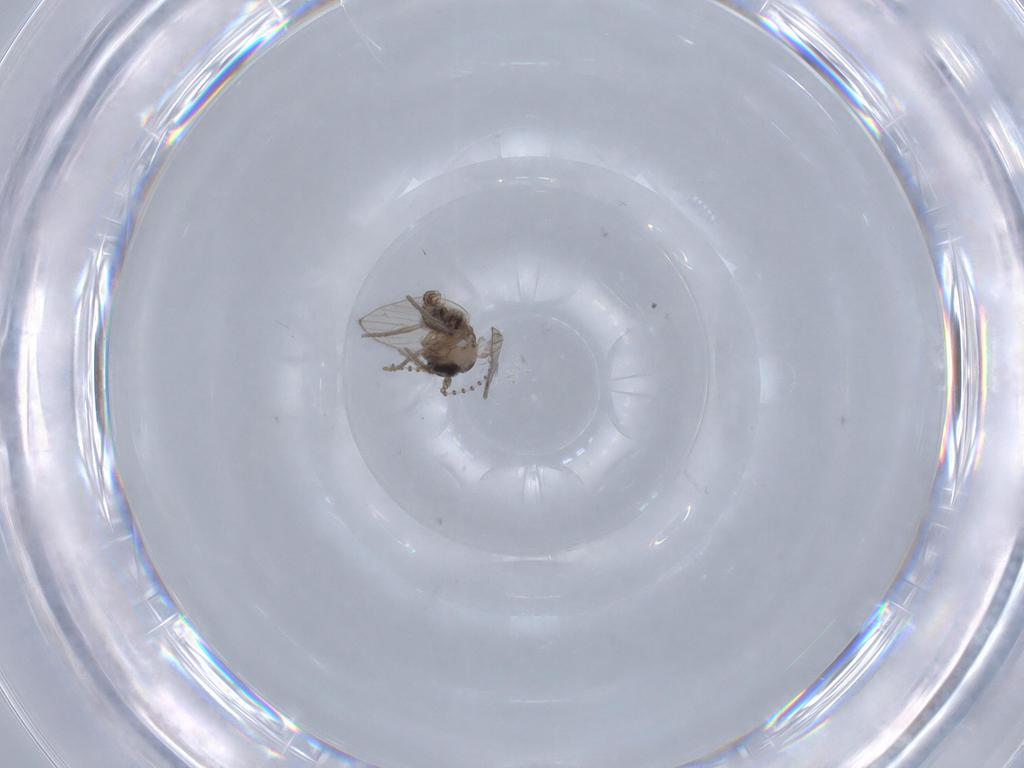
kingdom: Animalia
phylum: Arthropoda
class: Insecta
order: Diptera
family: Psychodidae
